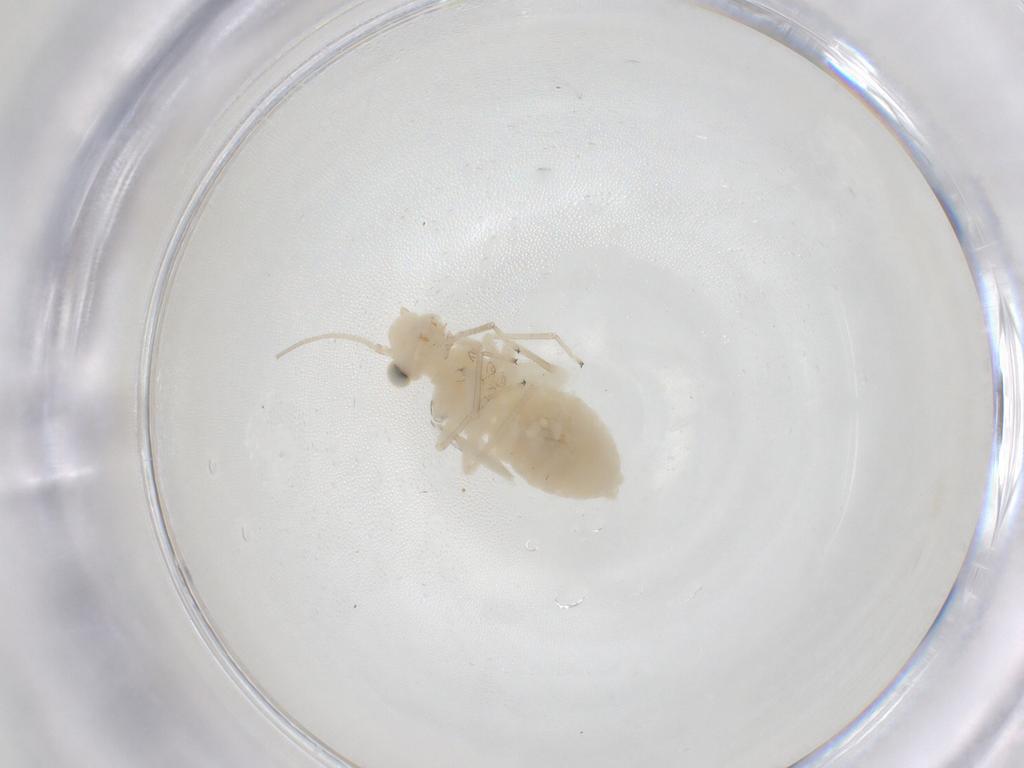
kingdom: Animalia
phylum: Arthropoda
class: Insecta
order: Psocodea
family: Caeciliusidae
